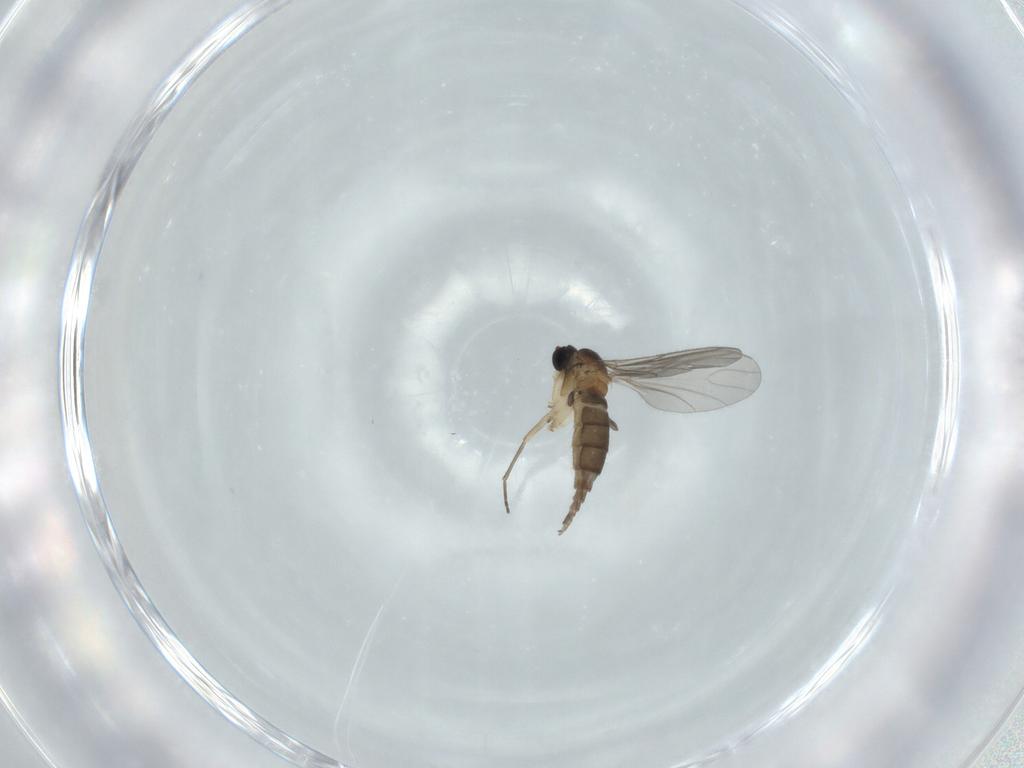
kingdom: Animalia
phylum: Arthropoda
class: Insecta
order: Diptera
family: Sciaridae
